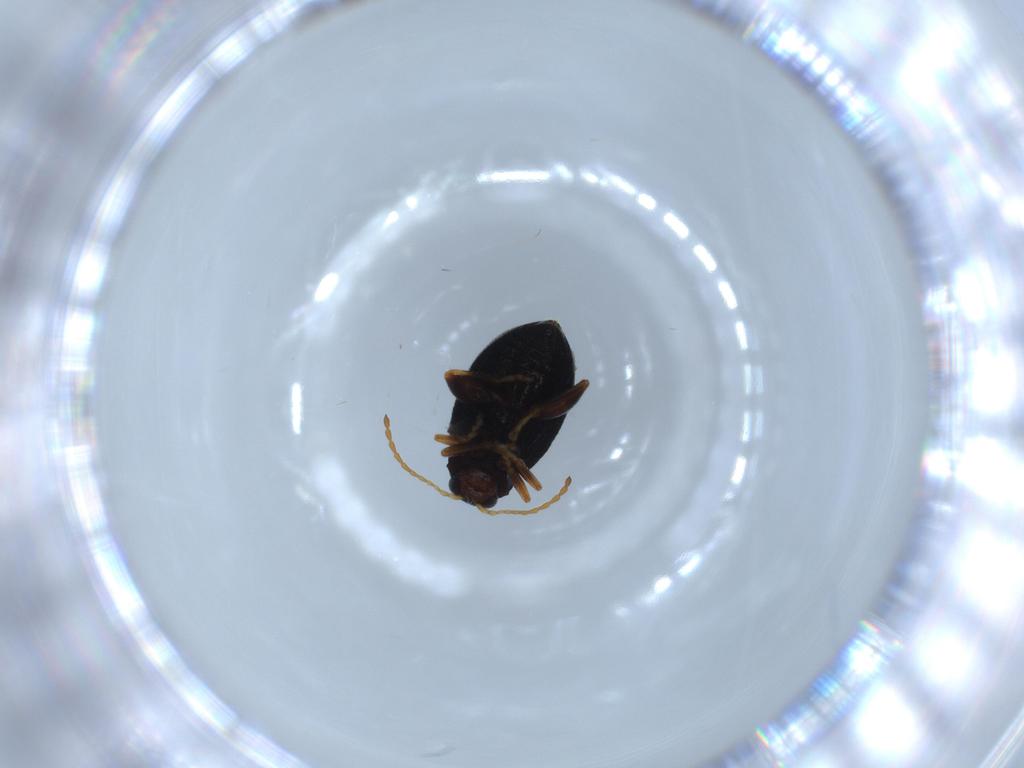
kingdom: Animalia
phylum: Arthropoda
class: Insecta
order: Coleoptera
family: Chrysomelidae
